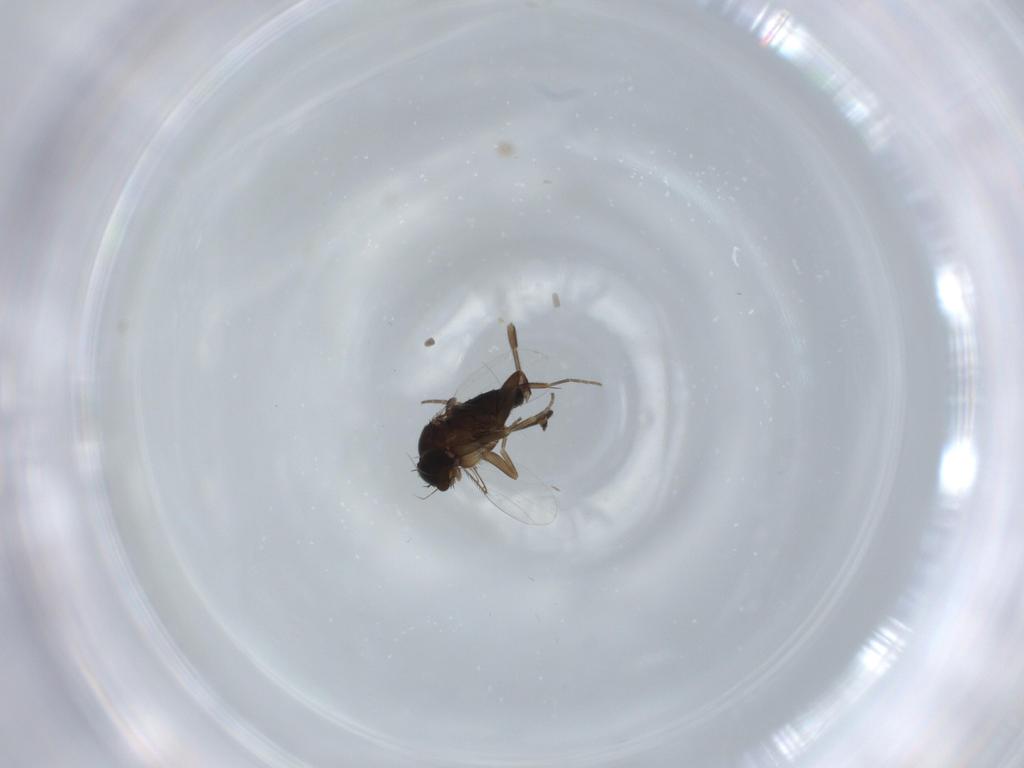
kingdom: Animalia
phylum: Arthropoda
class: Insecta
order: Diptera
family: Phoridae
